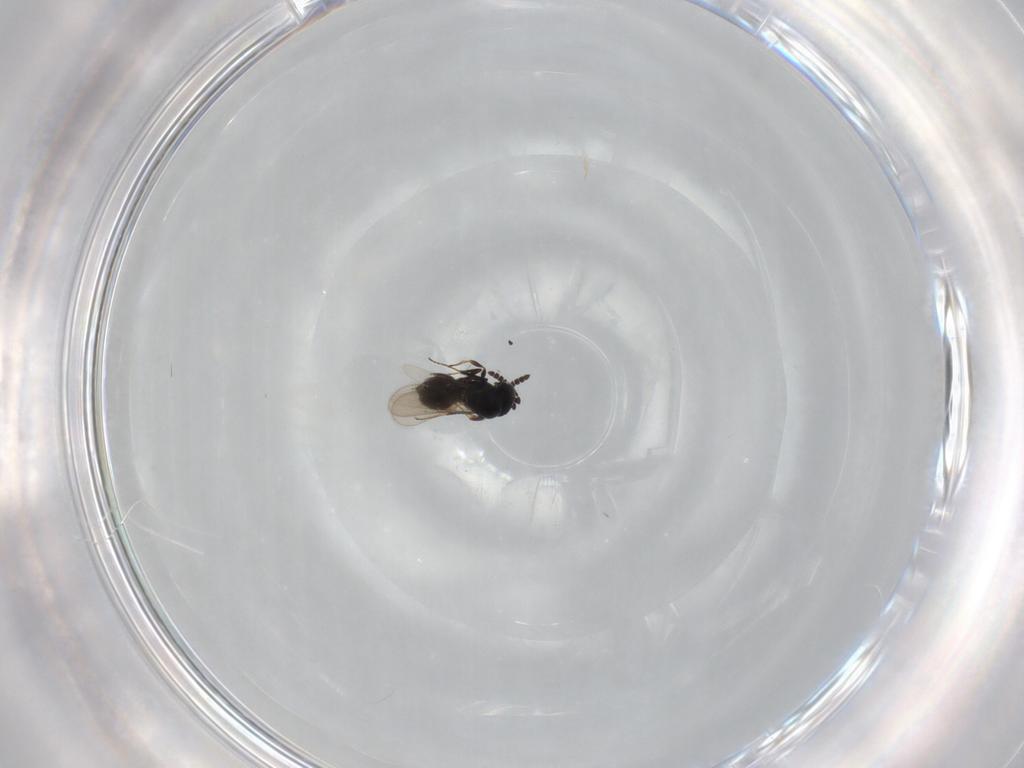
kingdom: Animalia
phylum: Arthropoda
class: Insecta
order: Hymenoptera
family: Scelionidae
